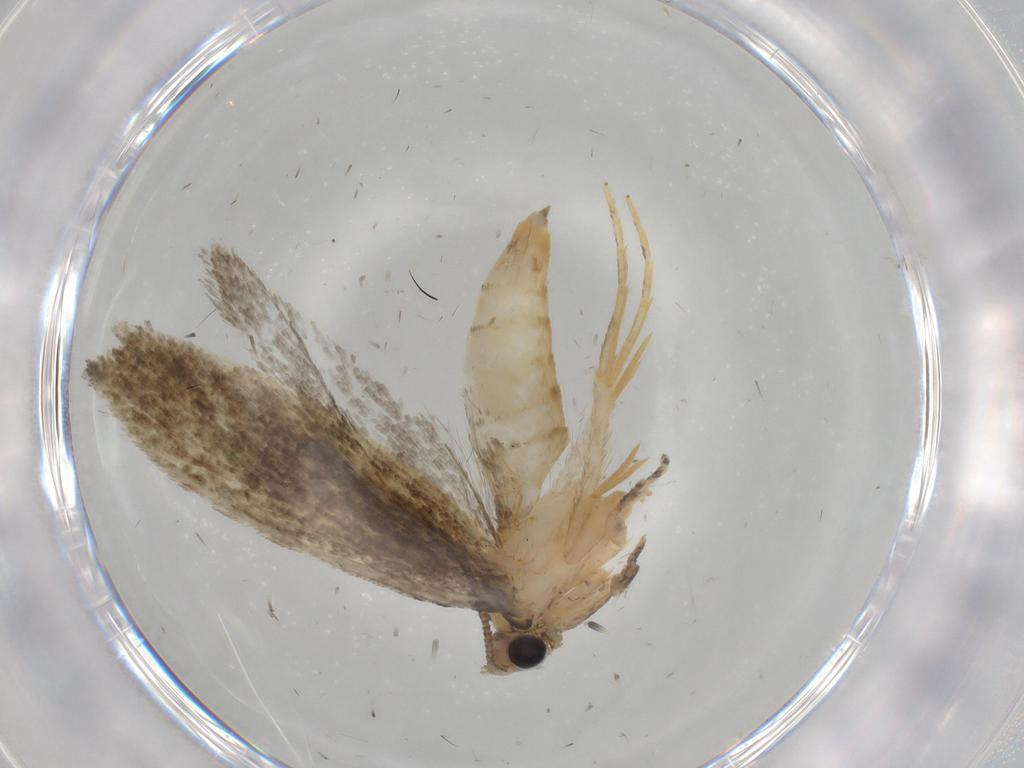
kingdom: Animalia
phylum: Arthropoda
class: Insecta
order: Lepidoptera
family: Tineidae
